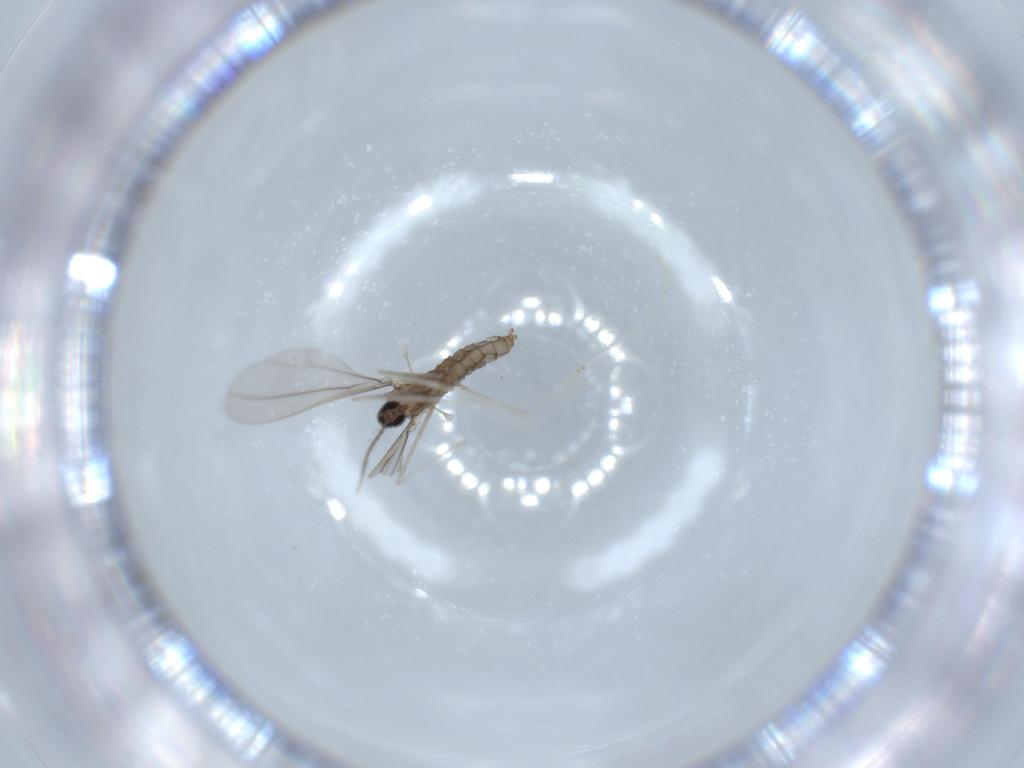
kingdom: Animalia
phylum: Arthropoda
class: Insecta
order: Diptera
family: Cecidomyiidae
